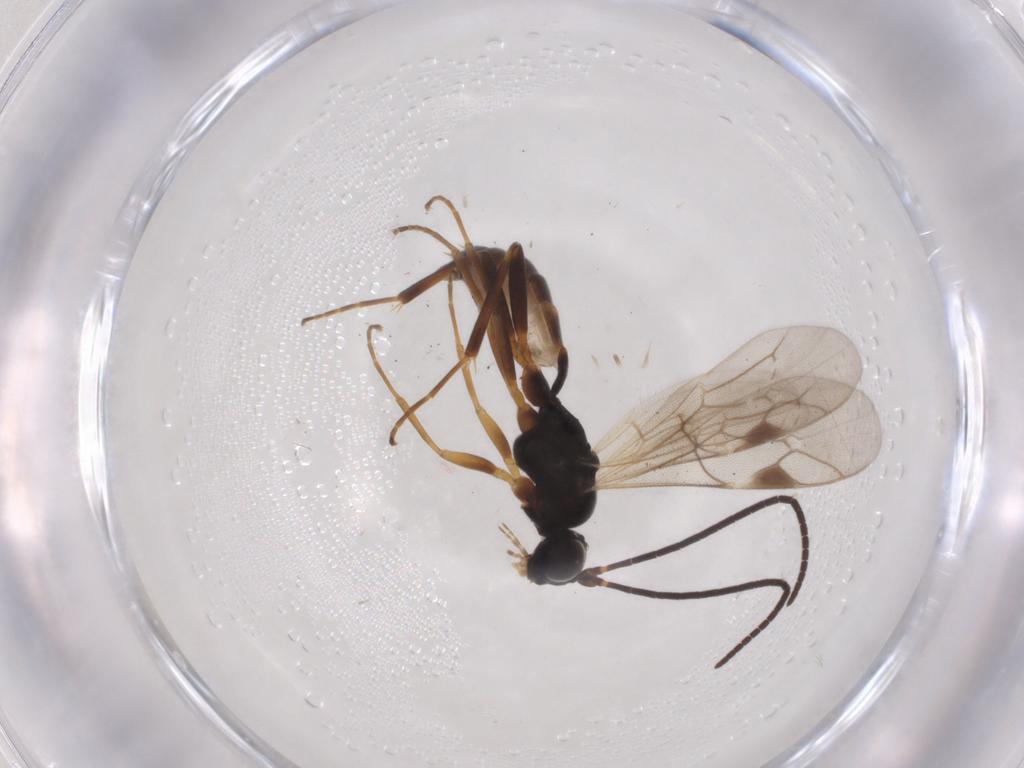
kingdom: Animalia
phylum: Arthropoda
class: Insecta
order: Hymenoptera
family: Ichneumonidae
